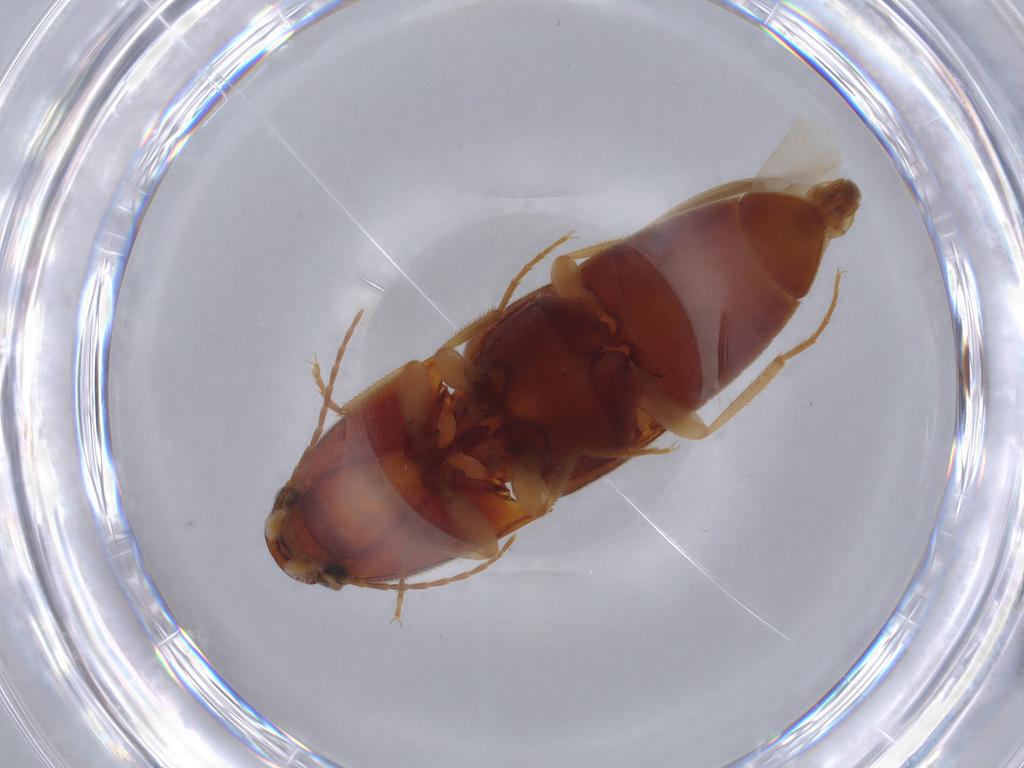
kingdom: Animalia
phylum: Arthropoda
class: Insecta
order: Coleoptera
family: Elateridae
